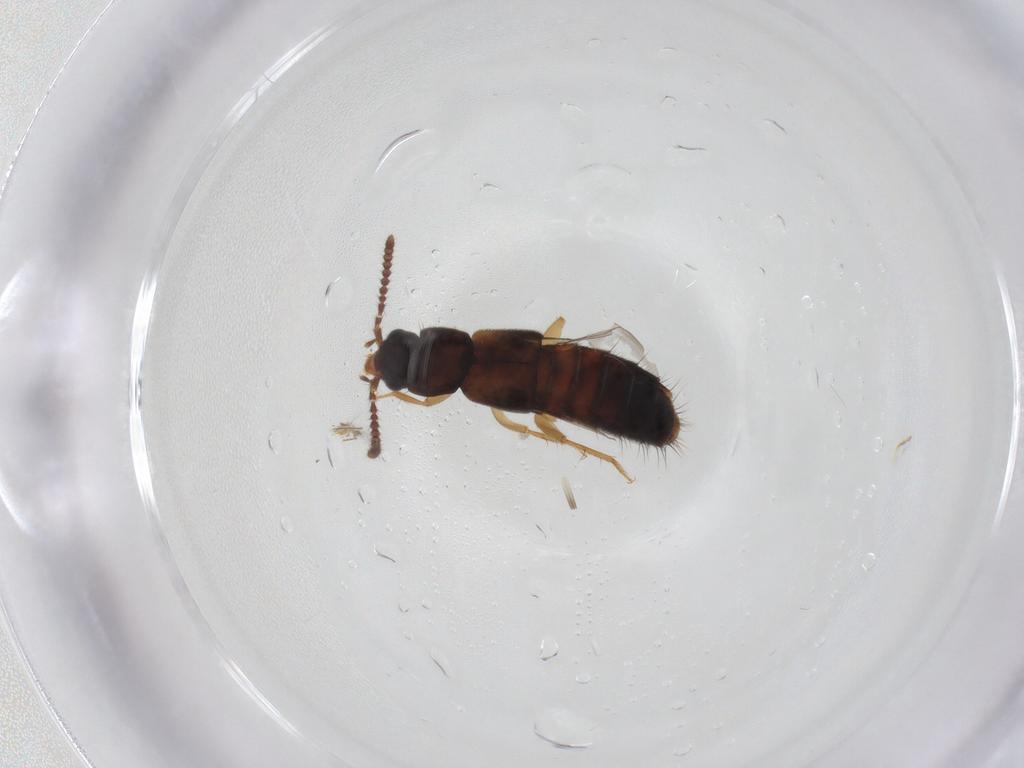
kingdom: Animalia
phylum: Arthropoda
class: Insecta
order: Coleoptera
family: Staphylinidae
